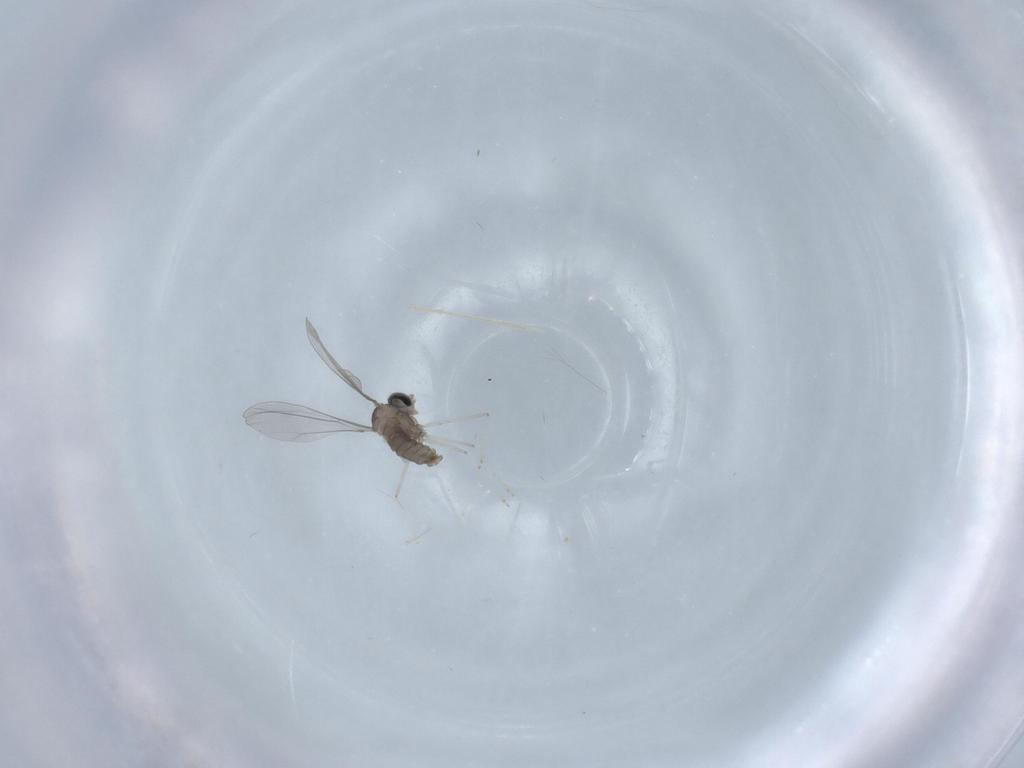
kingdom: Animalia
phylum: Arthropoda
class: Insecta
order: Diptera
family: Cecidomyiidae
